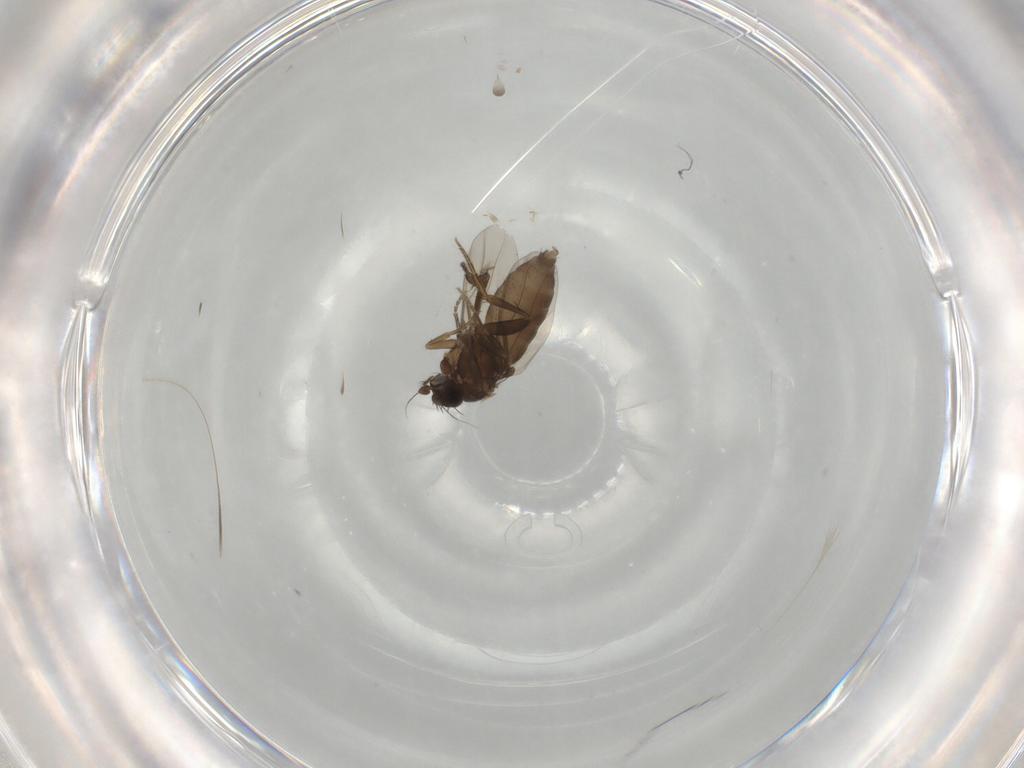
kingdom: Animalia
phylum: Arthropoda
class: Insecta
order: Diptera
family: Phoridae
